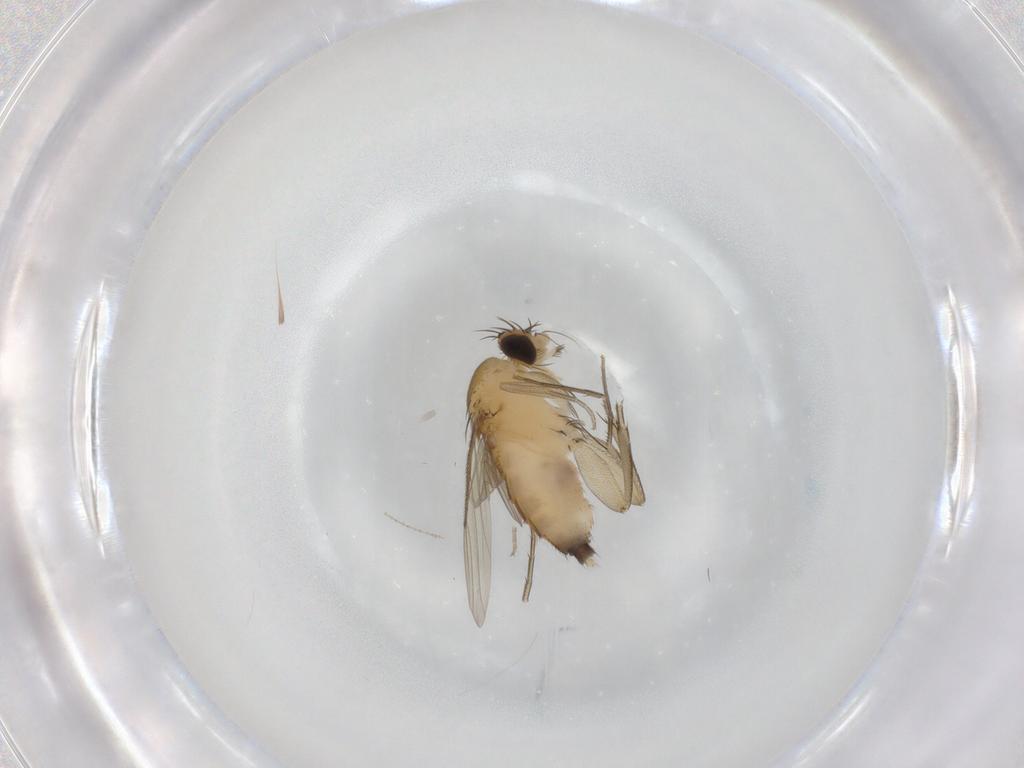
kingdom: Animalia
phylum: Arthropoda
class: Insecta
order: Diptera
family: Cecidomyiidae
